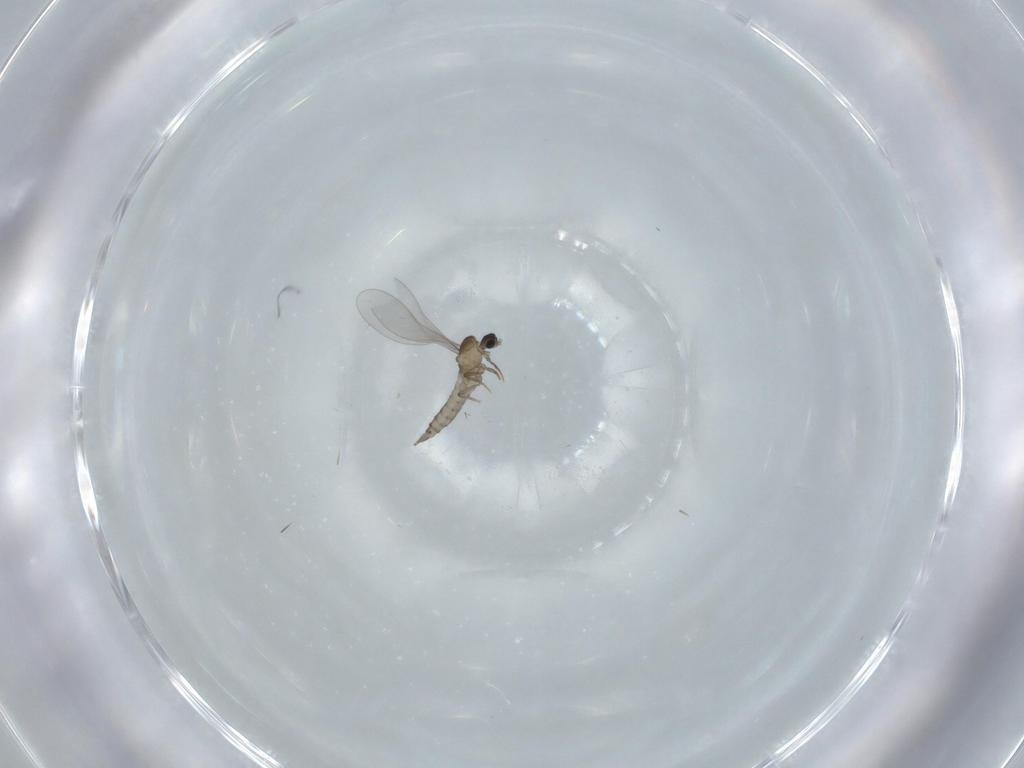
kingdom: Animalia
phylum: Arthropoda
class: Insecta
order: Diptera
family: Cecidomyiidae
